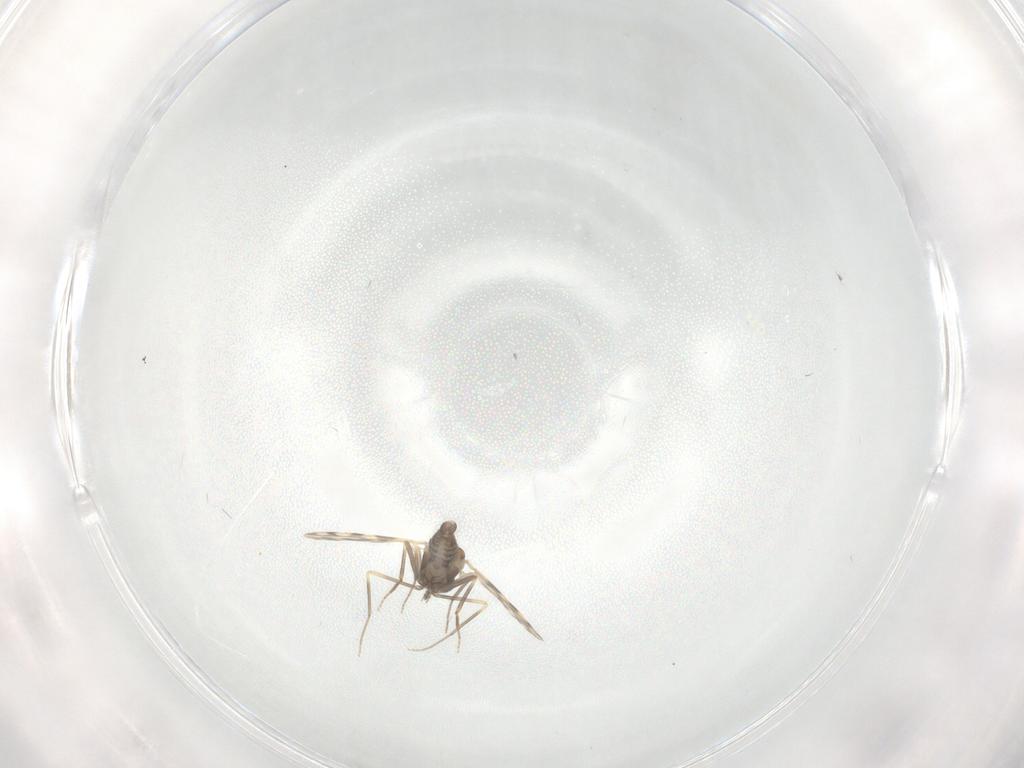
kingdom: Animalia
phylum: Arthropoda
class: Insecta
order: Diptera
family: Ceratopogonidae
